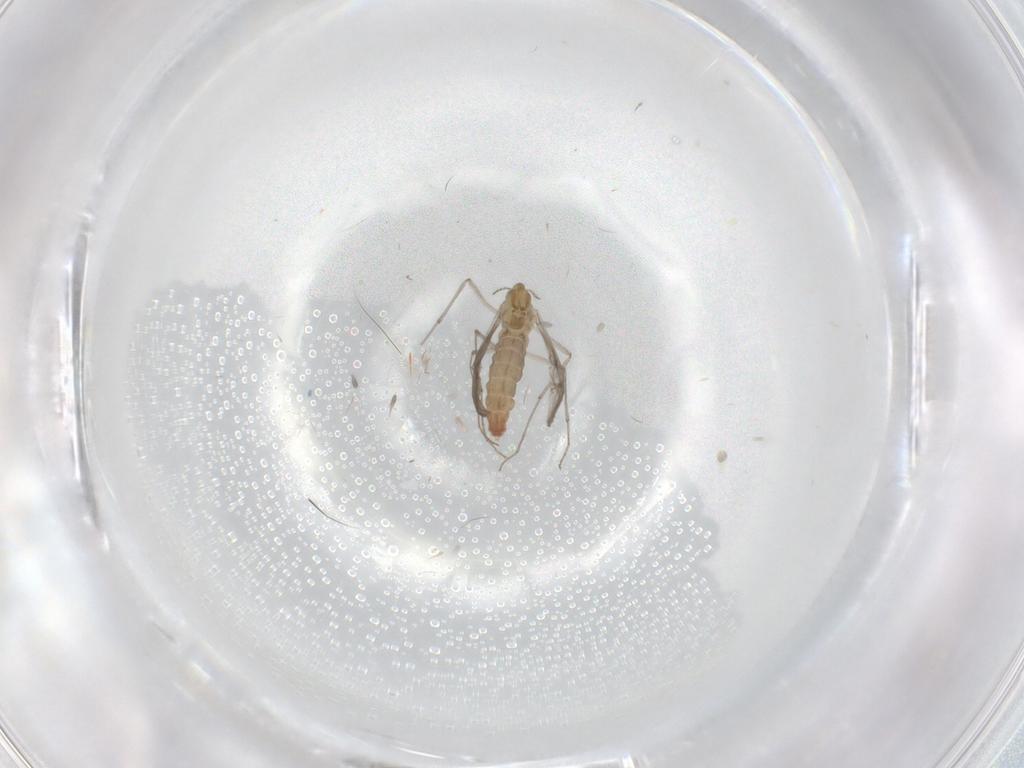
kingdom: Animalia
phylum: Arthropoda
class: Insecta
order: Diptera
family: Chironomidae
